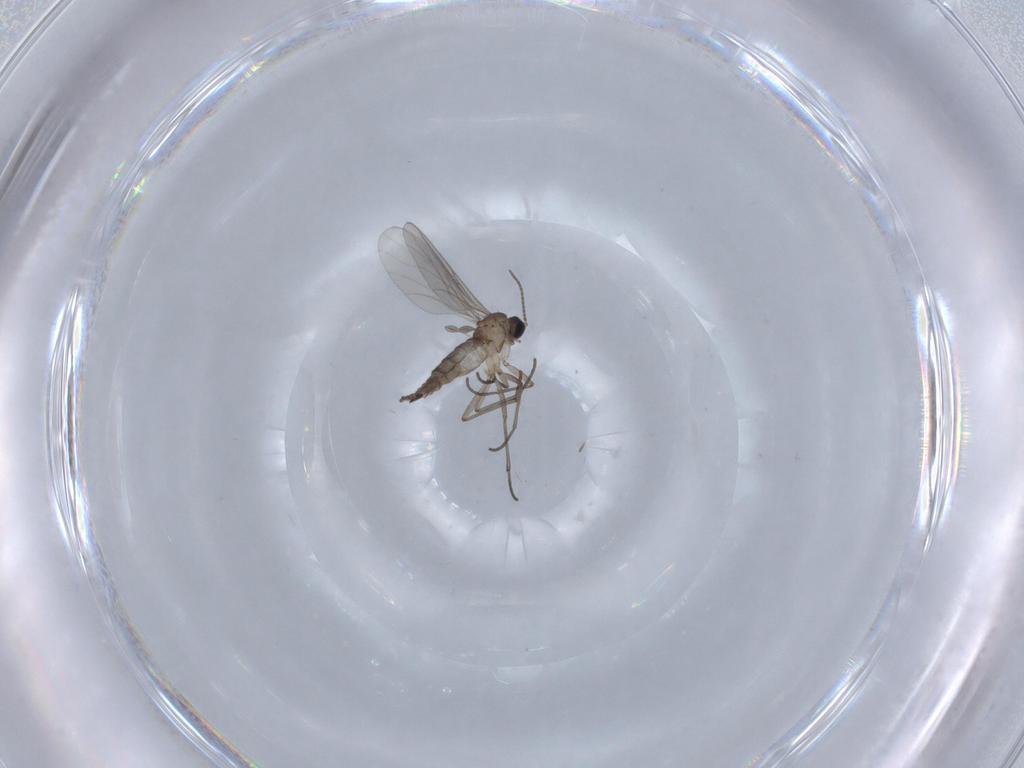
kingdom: Animalia
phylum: Arthropoda
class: Insecta
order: Diptera
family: Sciaridae
